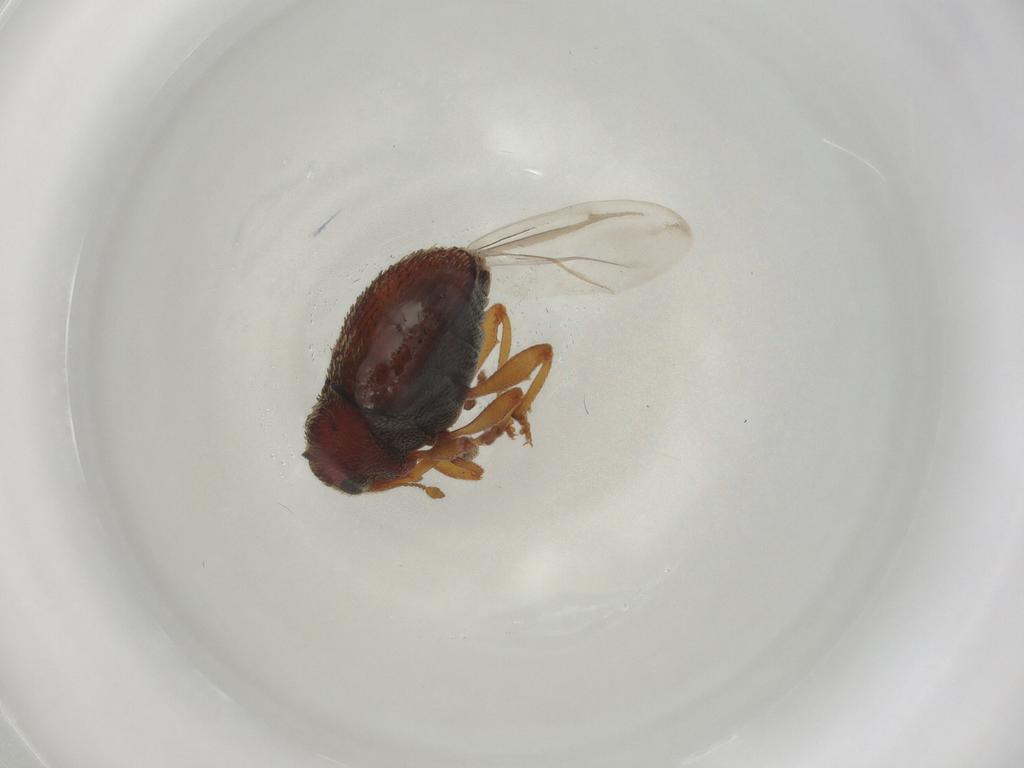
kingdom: Animalia
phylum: Arthropoda
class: Insecta
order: Coleoptera
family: Curculionidae
